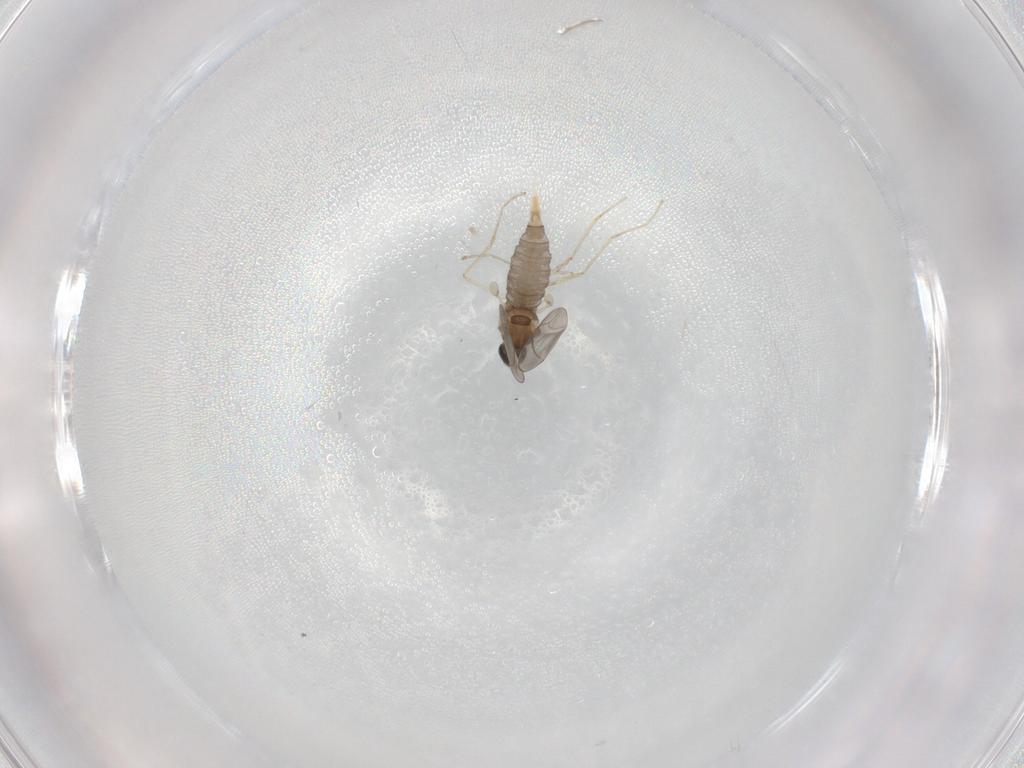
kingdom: Animalia
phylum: Arthropoda
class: Insecta
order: Diptera
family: Cecidomyiidae
